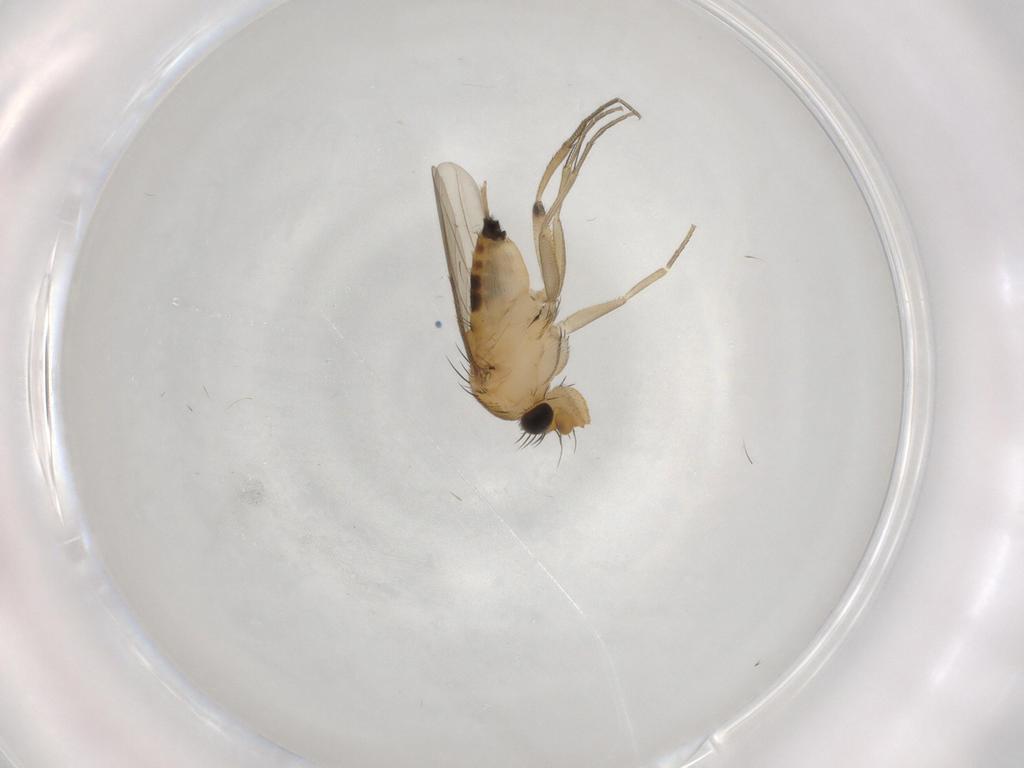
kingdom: Animalia
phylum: Arthropoda
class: Insecta
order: Diptera
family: Phoridae
